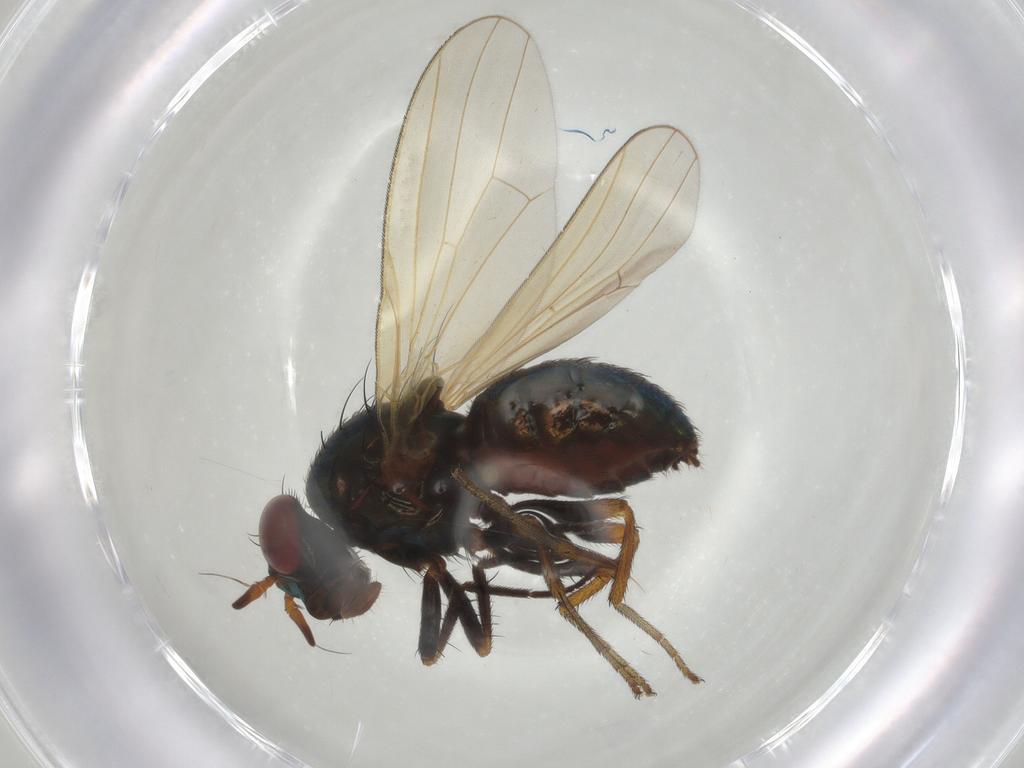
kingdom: Animalia
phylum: Arthropoda
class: Insecta
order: Diptera
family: Lauxaniidae
